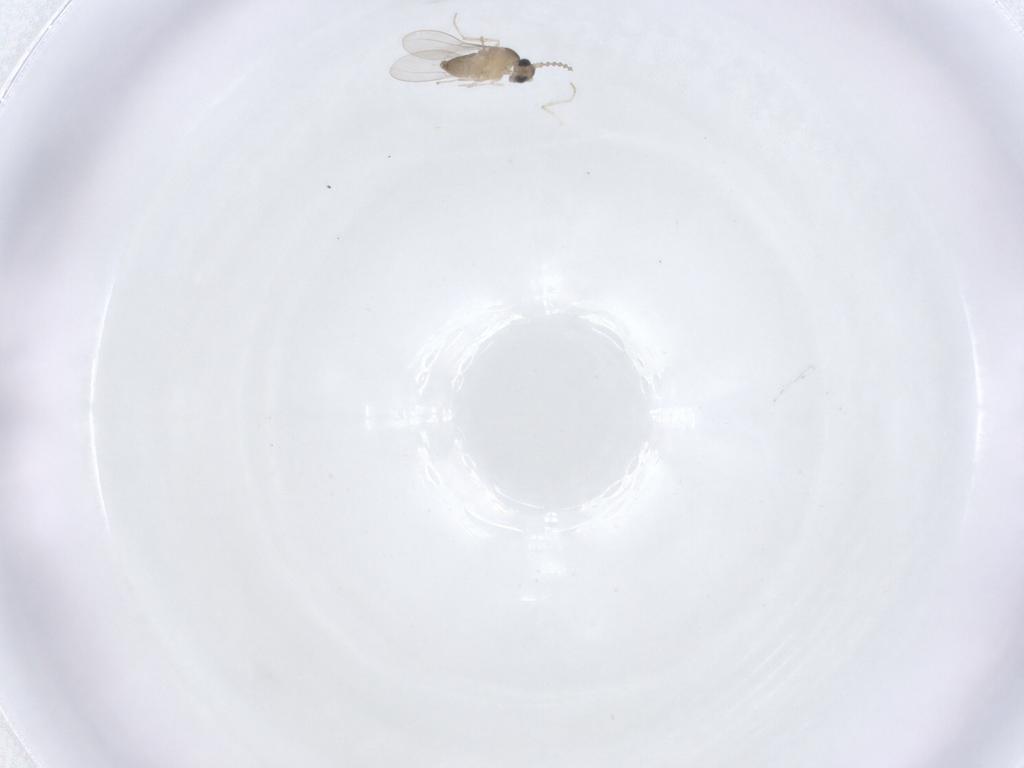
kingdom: Animalia
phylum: Arthropoda
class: Insecta
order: Diptera
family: Cecidomyiidae
